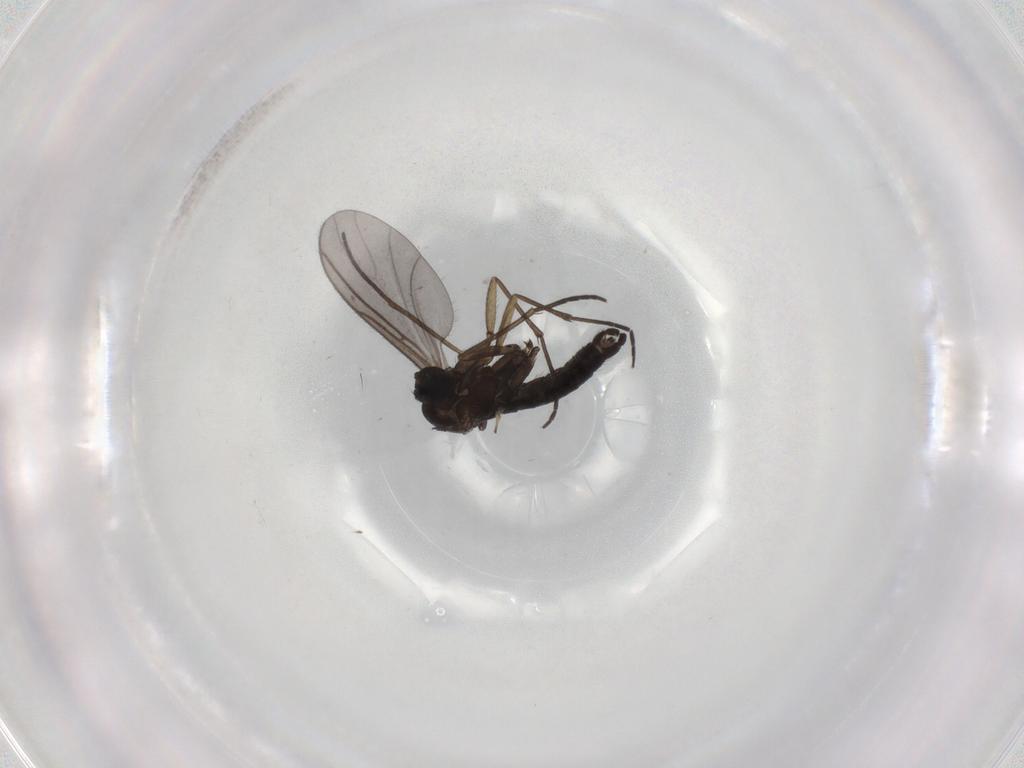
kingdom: Animalia
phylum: Arthropoda
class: Insecta
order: Diptera
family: Sciaridae
